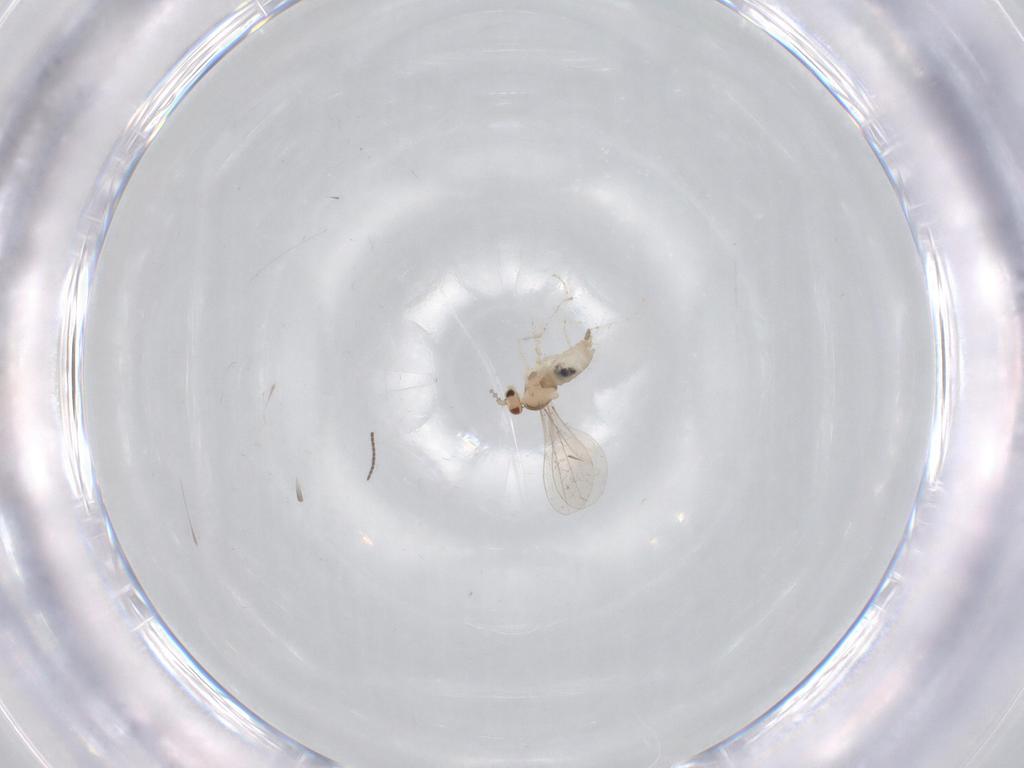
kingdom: Animalia
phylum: Arthropoda
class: Insecta
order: Diptera
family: Cecidomyiidae
